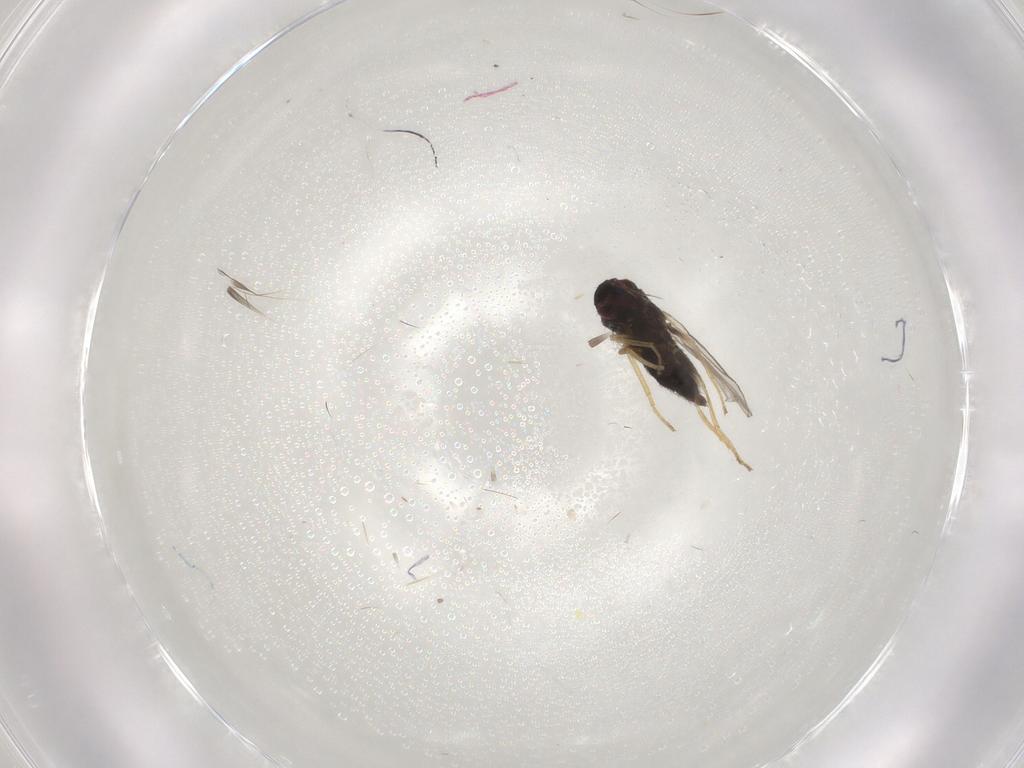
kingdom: Animalia
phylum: Arthropoda
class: Insecta
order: Diptera
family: Dolichopodidae
